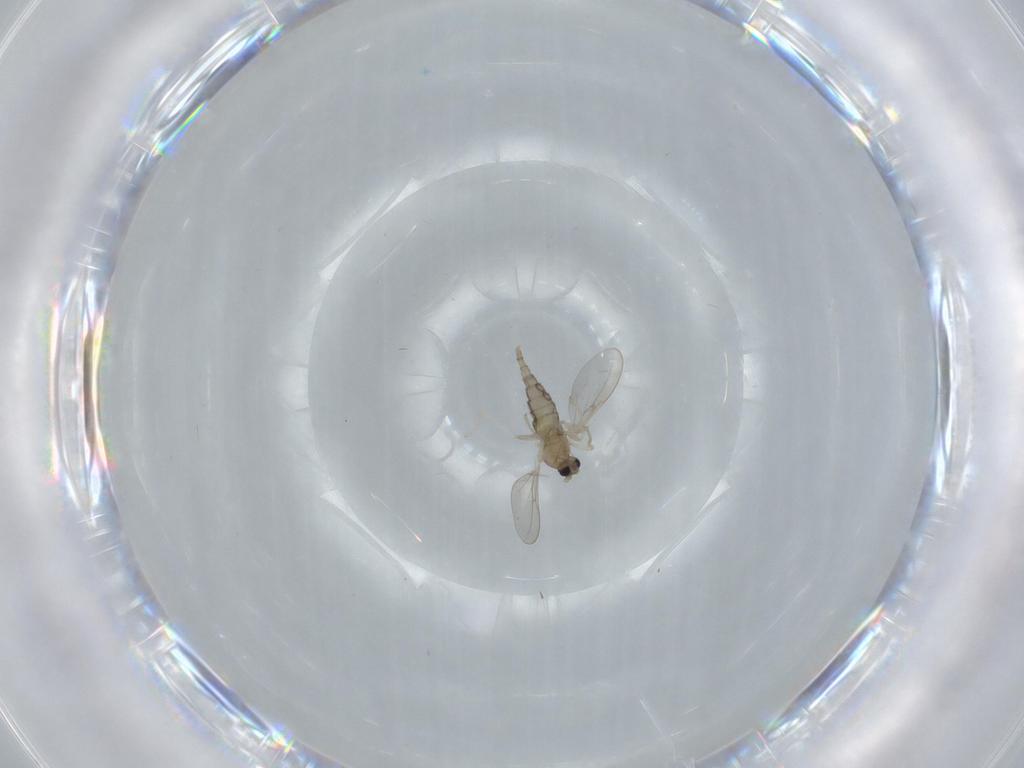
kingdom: Animalia
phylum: Arthropoda
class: Insecta
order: Diptera
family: Cecidomyiidae
